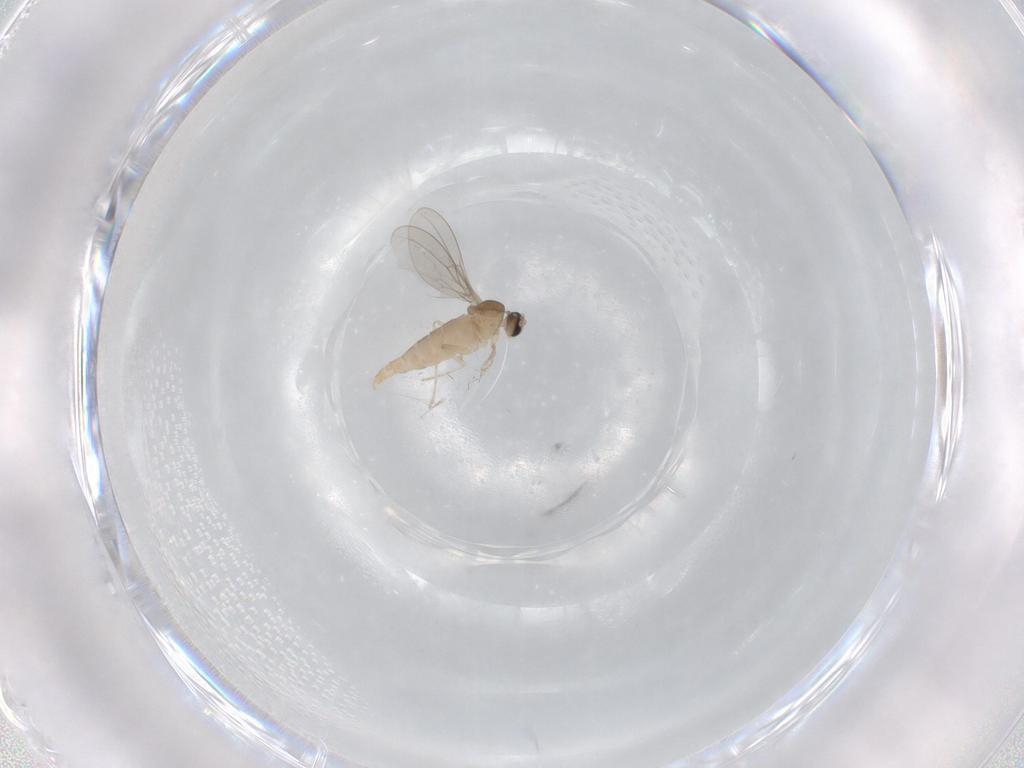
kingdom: Animalia
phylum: Arthropoda
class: Insecta
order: Diptera
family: Cecidomyiidae
